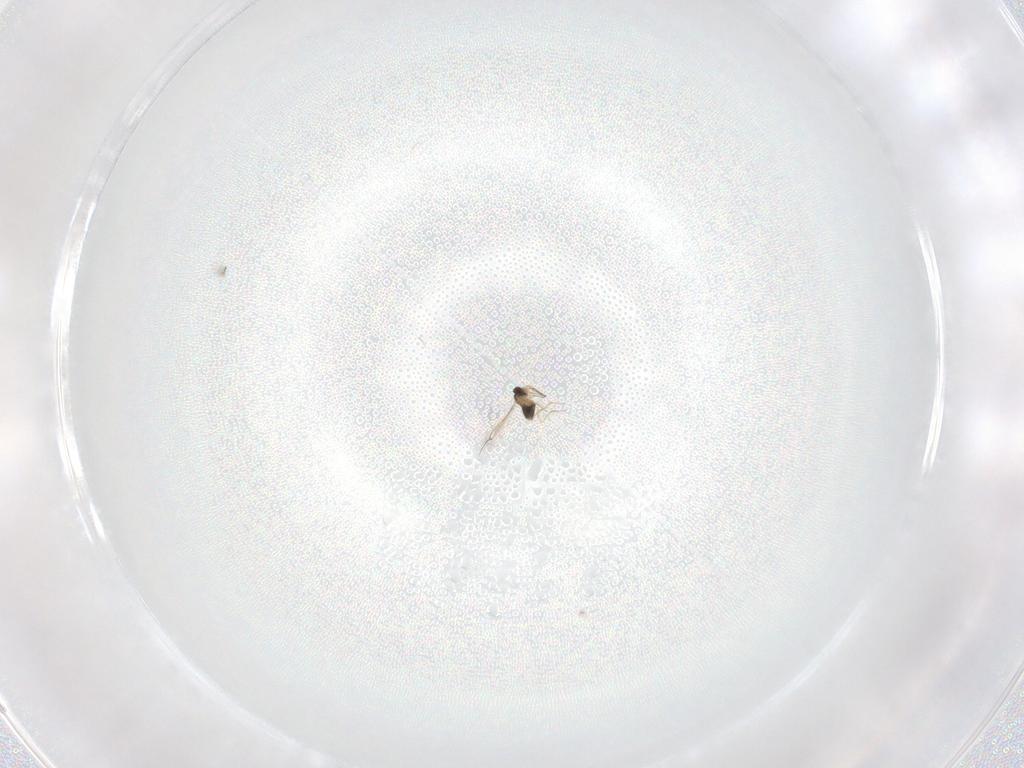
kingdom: Animalia
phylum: Arthropoda
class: Insecta
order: Hymenoptera
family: Mymaridae
